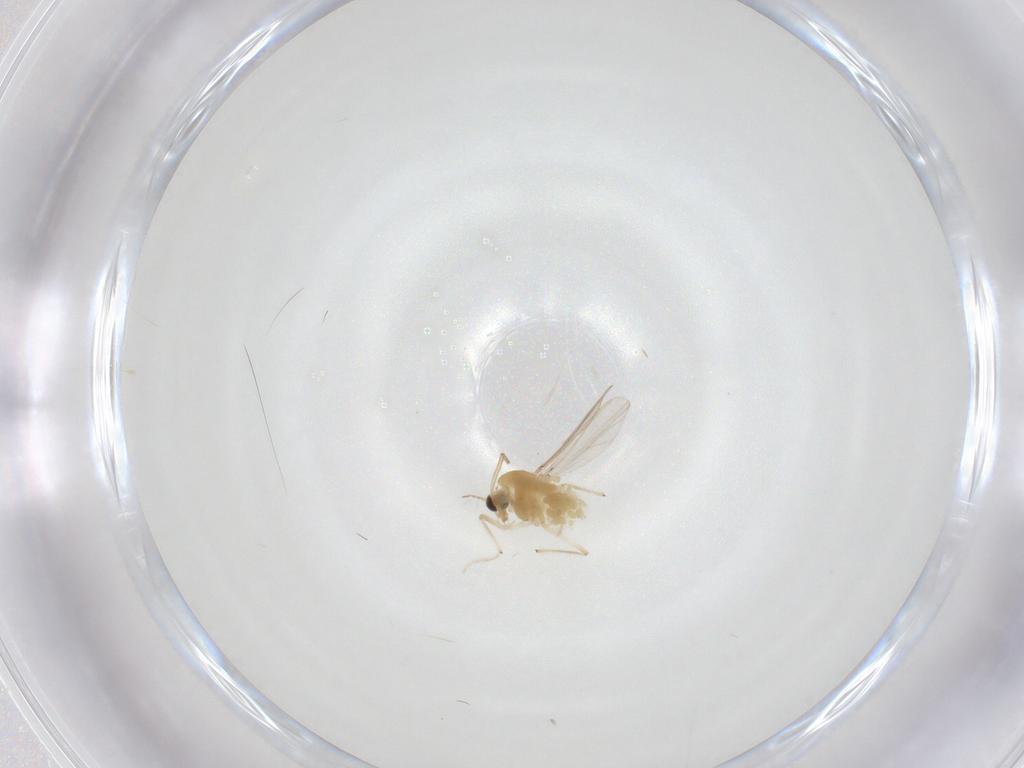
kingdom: Animalia
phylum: Arthropoda
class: Insecta
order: Diptera
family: Chironomidae
